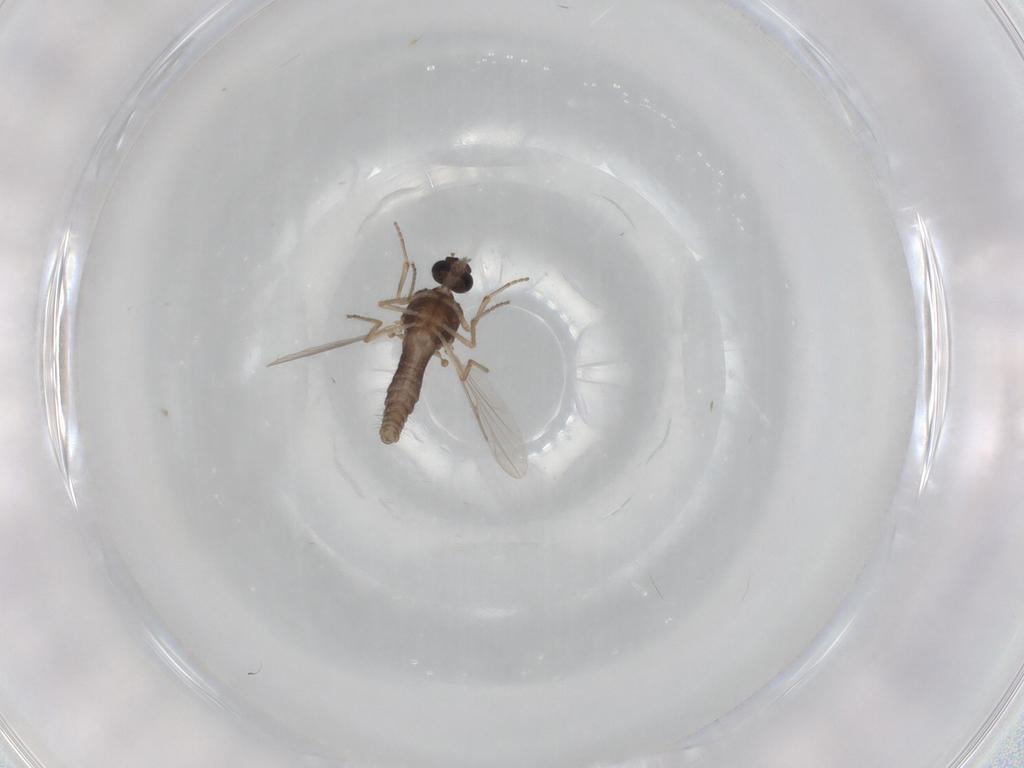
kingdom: Animalia
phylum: Arthropoda
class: Insecta
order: Diptera
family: Ceratopogonidae
